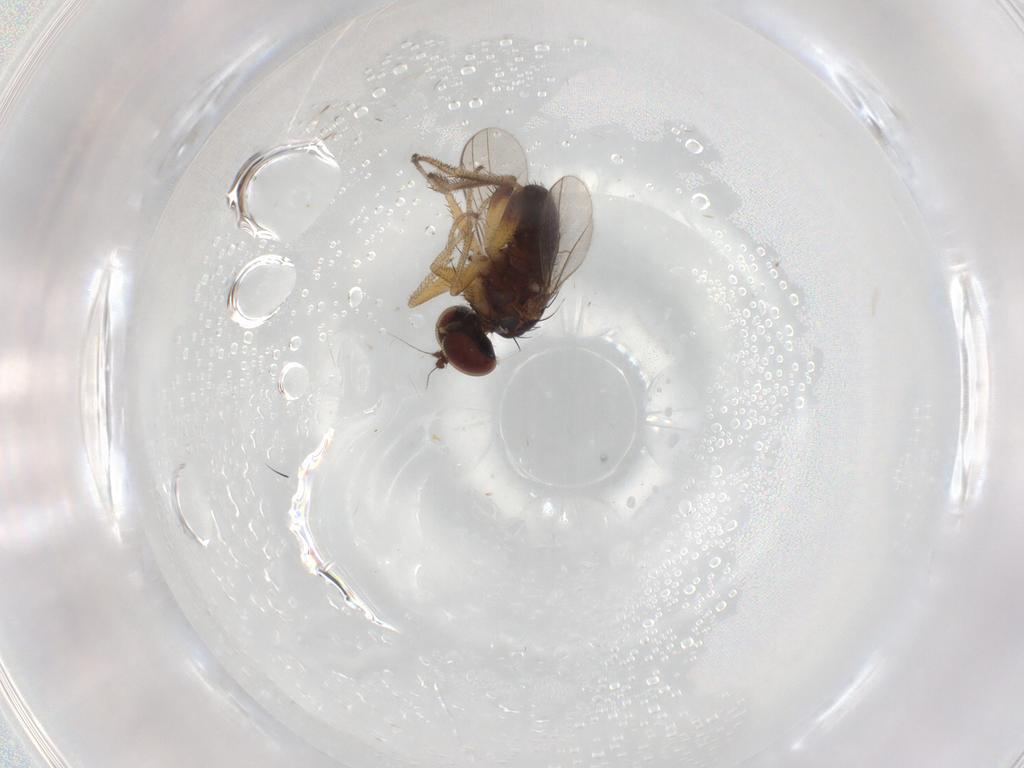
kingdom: Animalia
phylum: Arthropoda
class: Insecta
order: Diptera
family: Dolichopodidae
